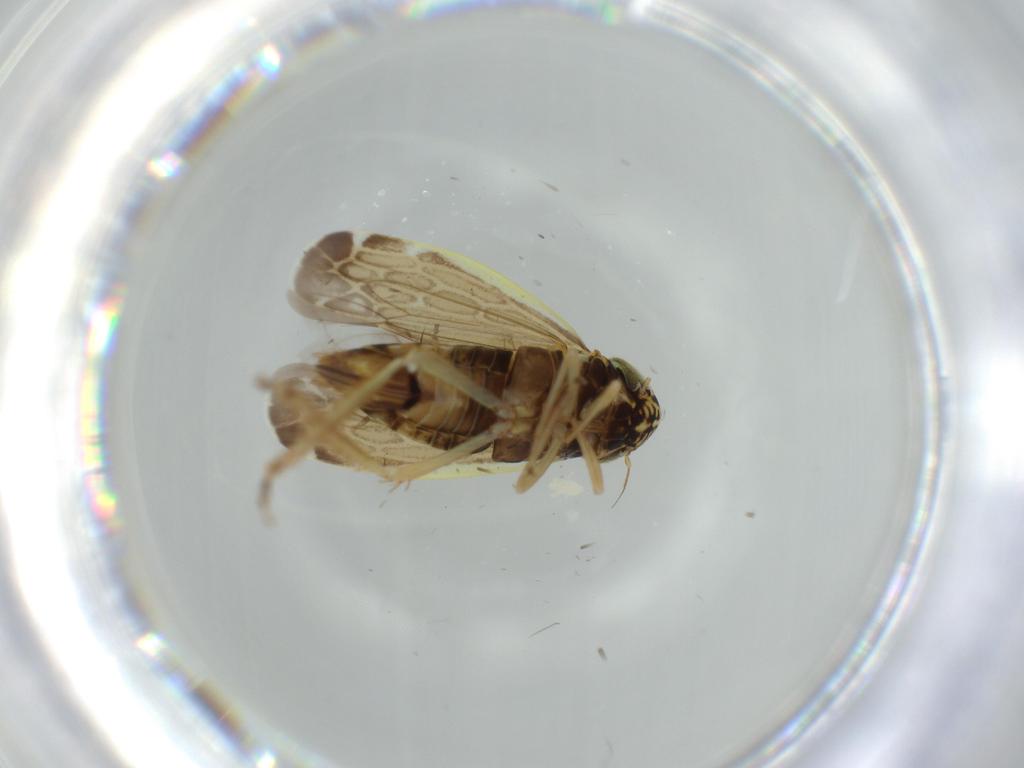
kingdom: Animalia
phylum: Arthropoda
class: Insecta
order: Hemiptera
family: Cicadellidae
